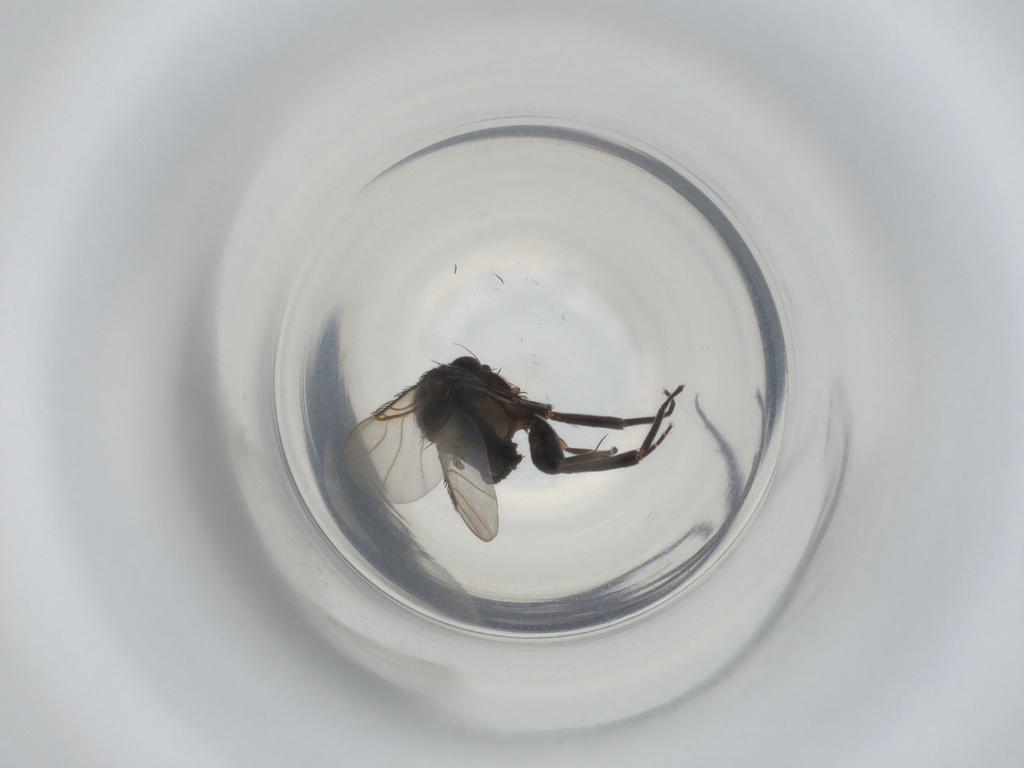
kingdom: Animalia
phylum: Arthropoda
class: Insecta
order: Diptera
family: Phoridae
